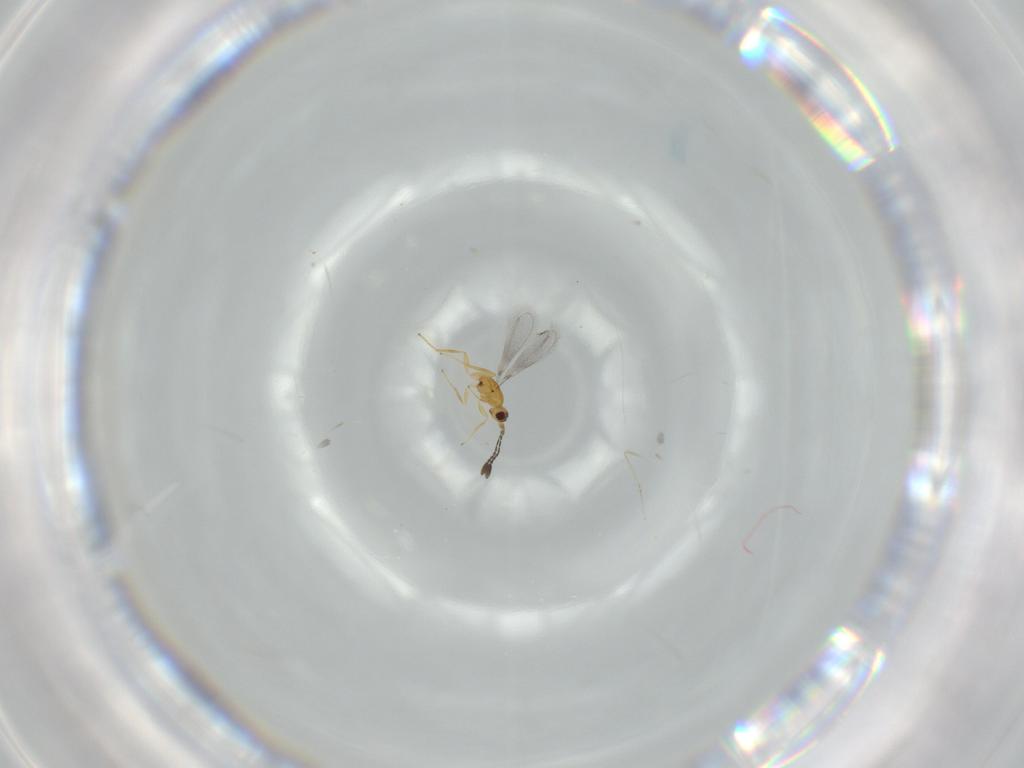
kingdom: Animalia
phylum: Arthropoda
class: Insecta
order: Hymenoptera
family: Mymaridae
